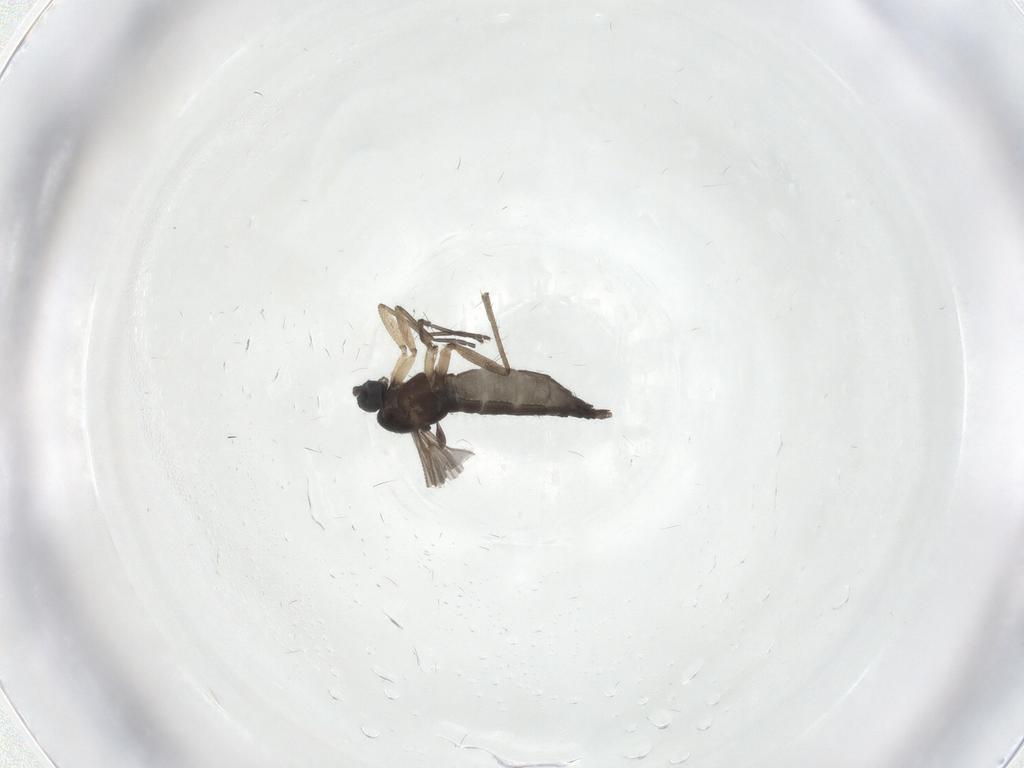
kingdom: Animalia
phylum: Arthropoda
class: Insecta
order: Diptera
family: Sciaridae
